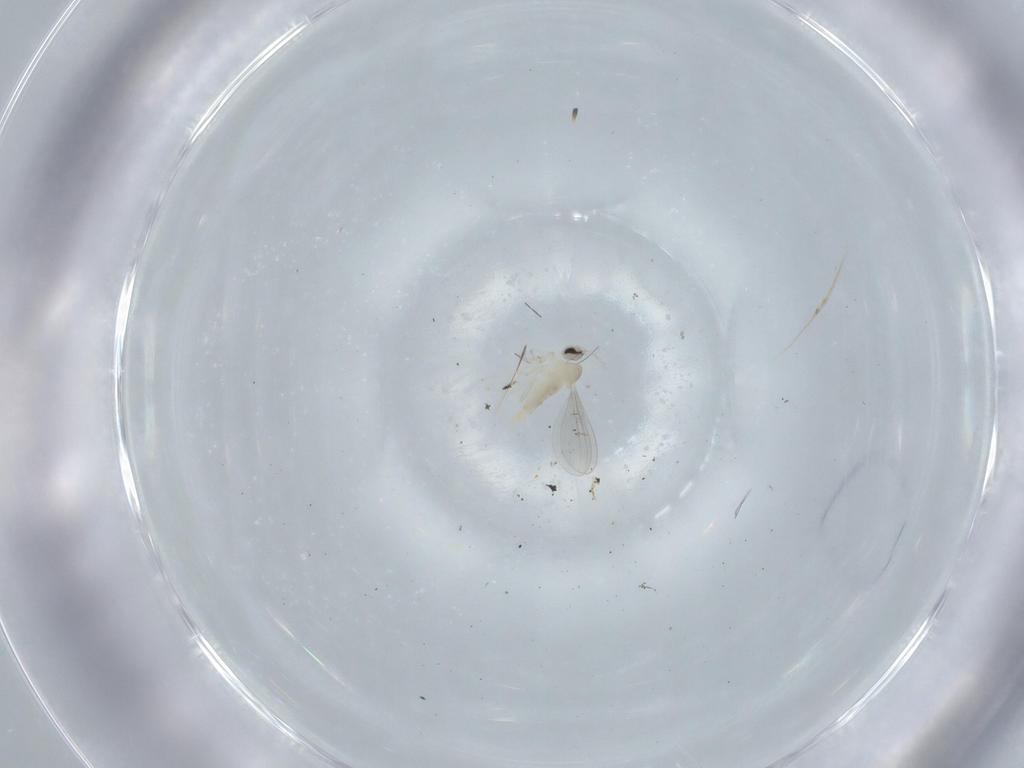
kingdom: Animalia
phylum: Arthropoda
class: Insecta
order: Diptera
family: Cecidomyiidae
